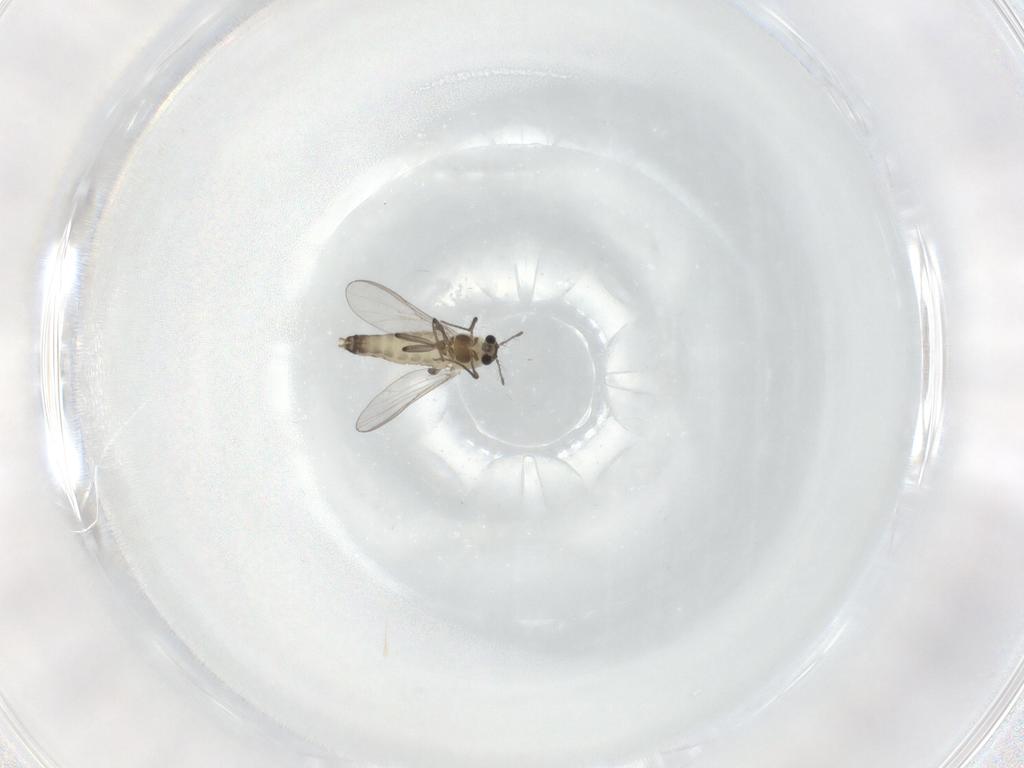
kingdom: Animalia
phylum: Arthropoda
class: Insecta
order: Diptera
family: Chironomidae
